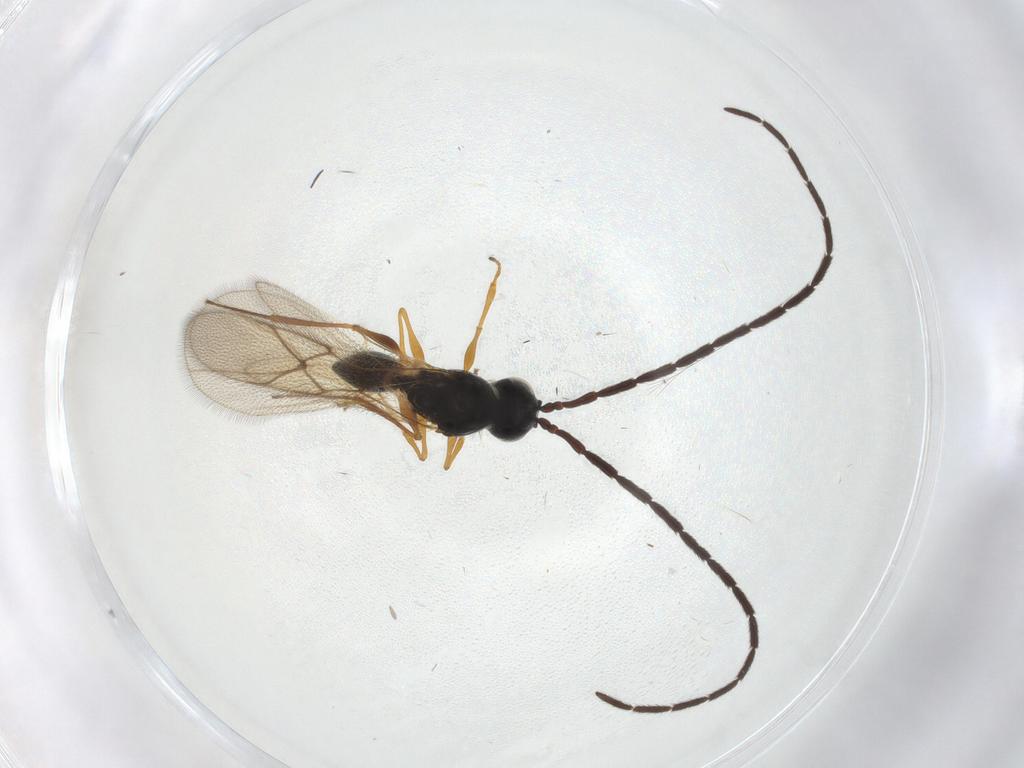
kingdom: Animalia
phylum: Arthropoda
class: Insecta
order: Hymenoptera
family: Figitidae
